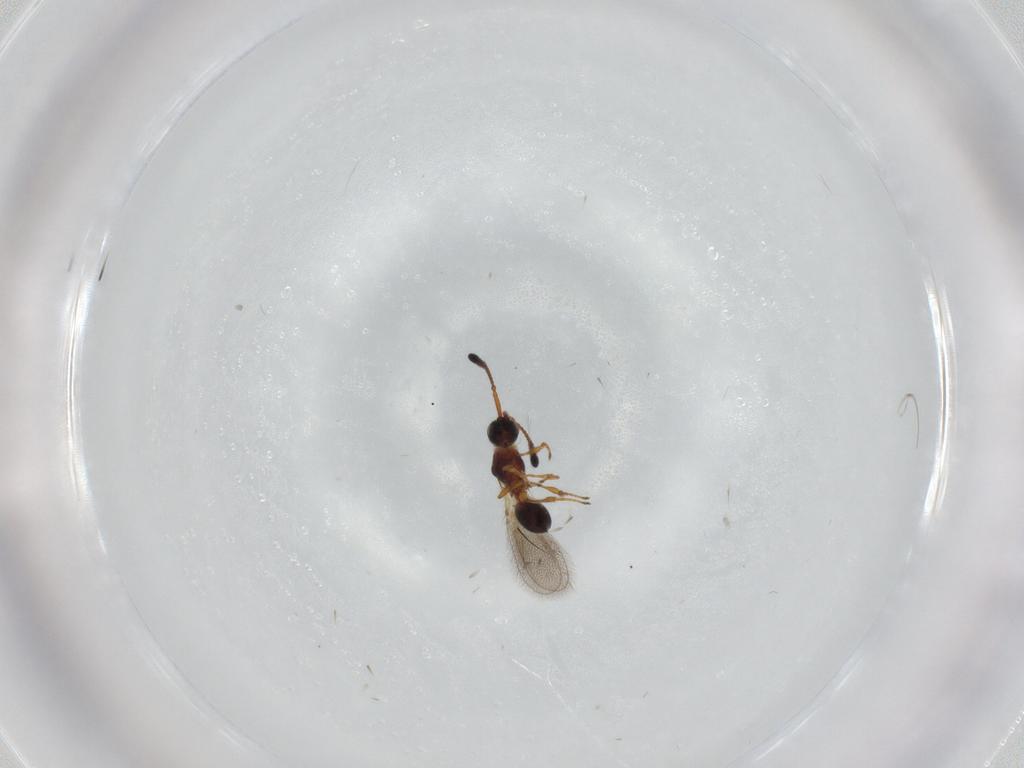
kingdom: Animalia
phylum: Arthropoda
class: Insecta
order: Hymenoptera
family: Diapriidae
